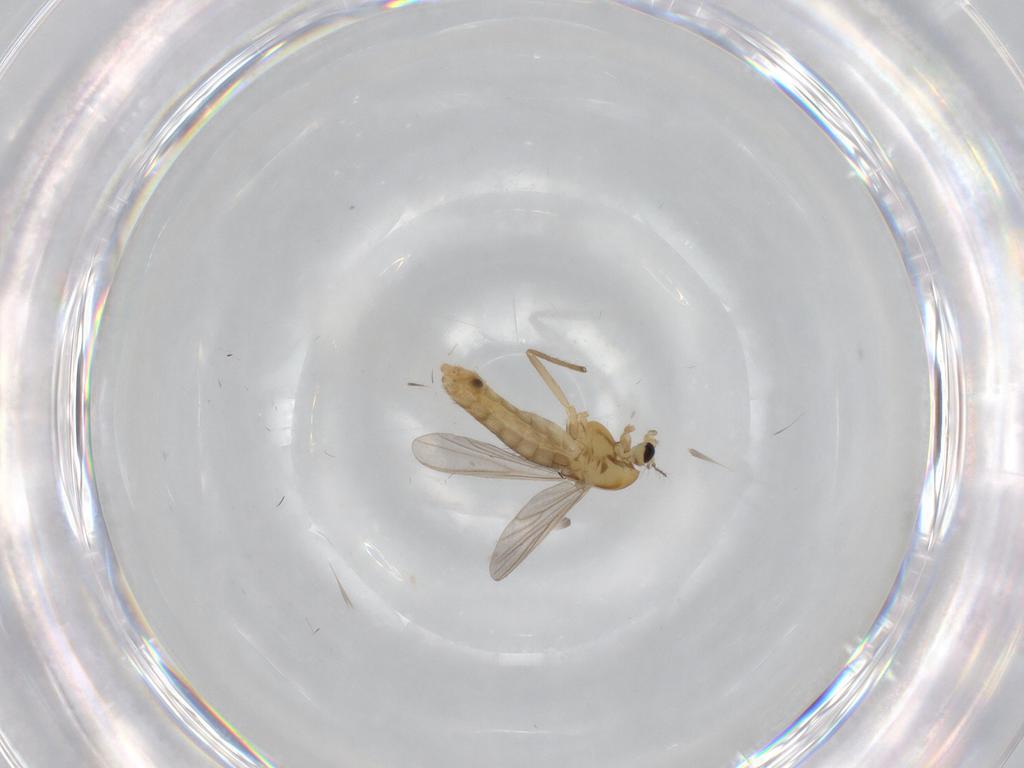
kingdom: Animalia
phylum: Arthropoda
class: Insecta
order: Diptera
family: Chironomidae
